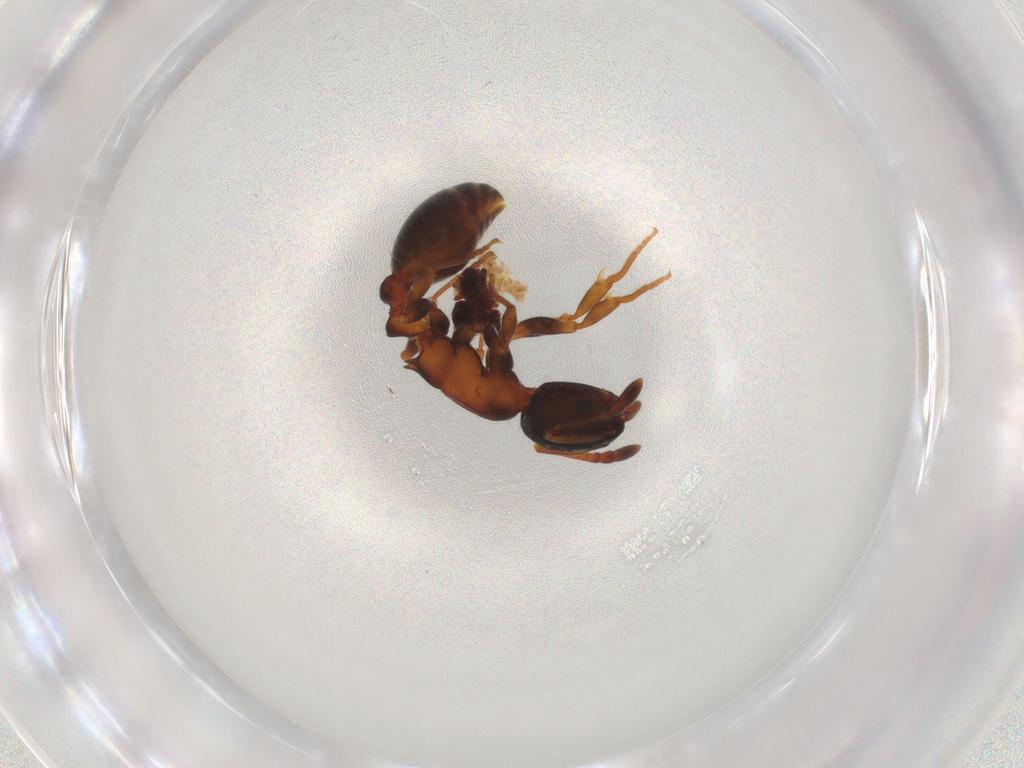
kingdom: Animalia
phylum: Arthropoda
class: Insecta
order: Hymenoptera
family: Formicidae
